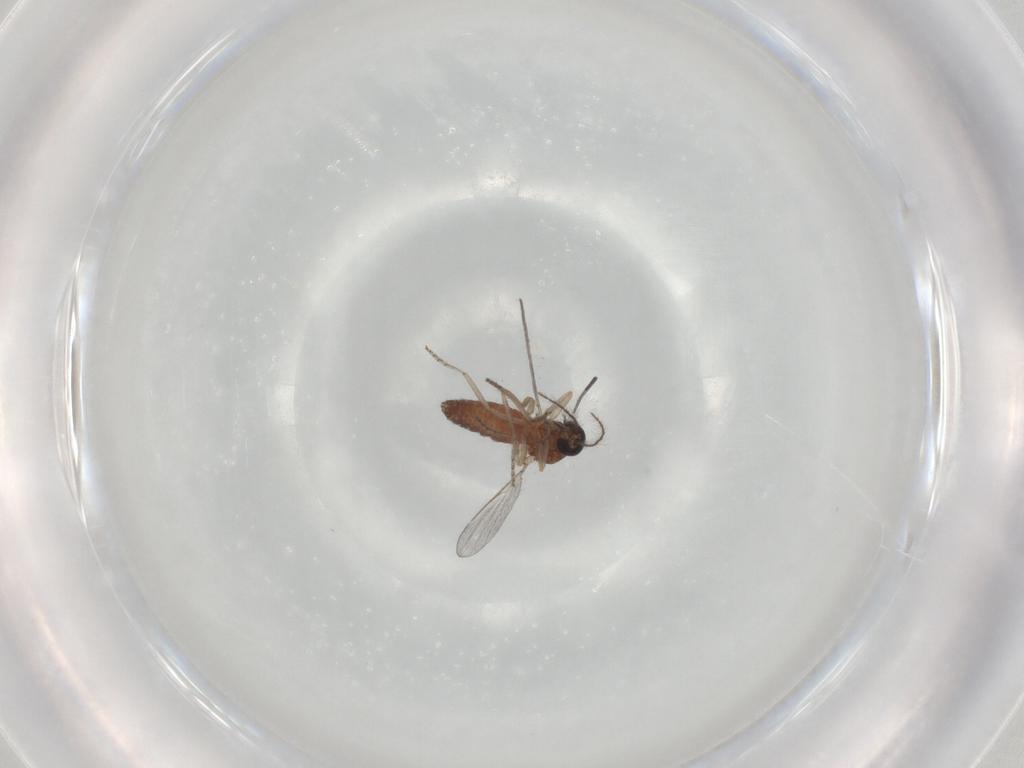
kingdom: Animalia
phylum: Arthropoda
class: Insecta
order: Diptera
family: Ceratopogonidae
